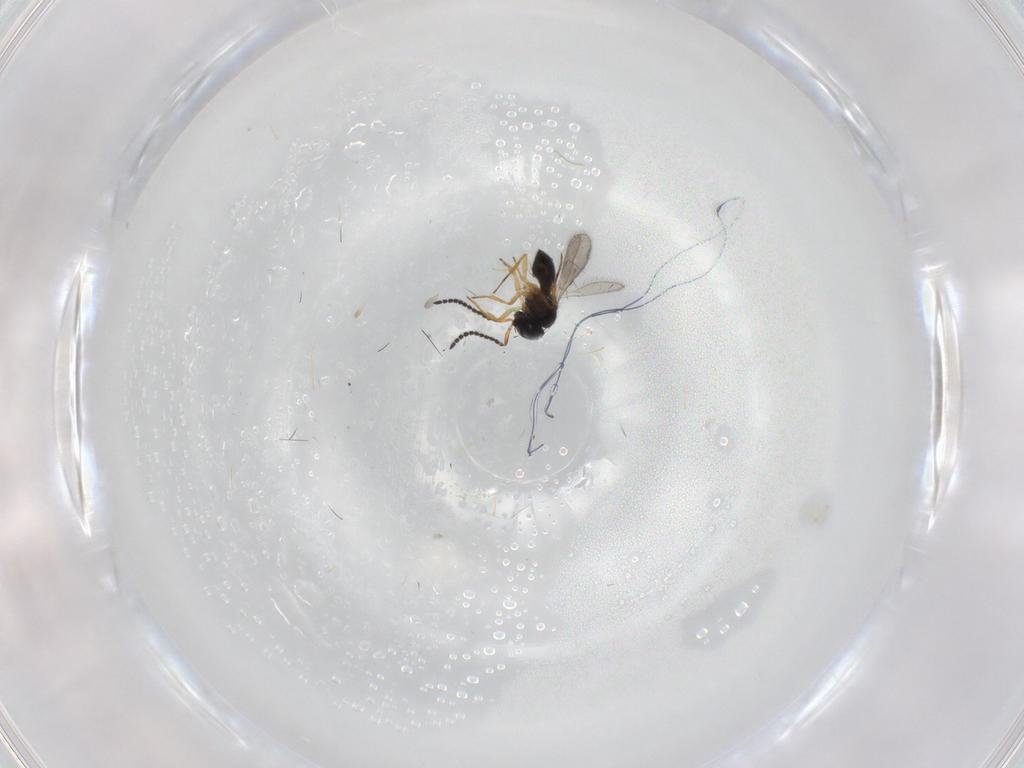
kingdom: Animalia
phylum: Arthropoda
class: Insecta
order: Hymenoptera
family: Scelionidae
